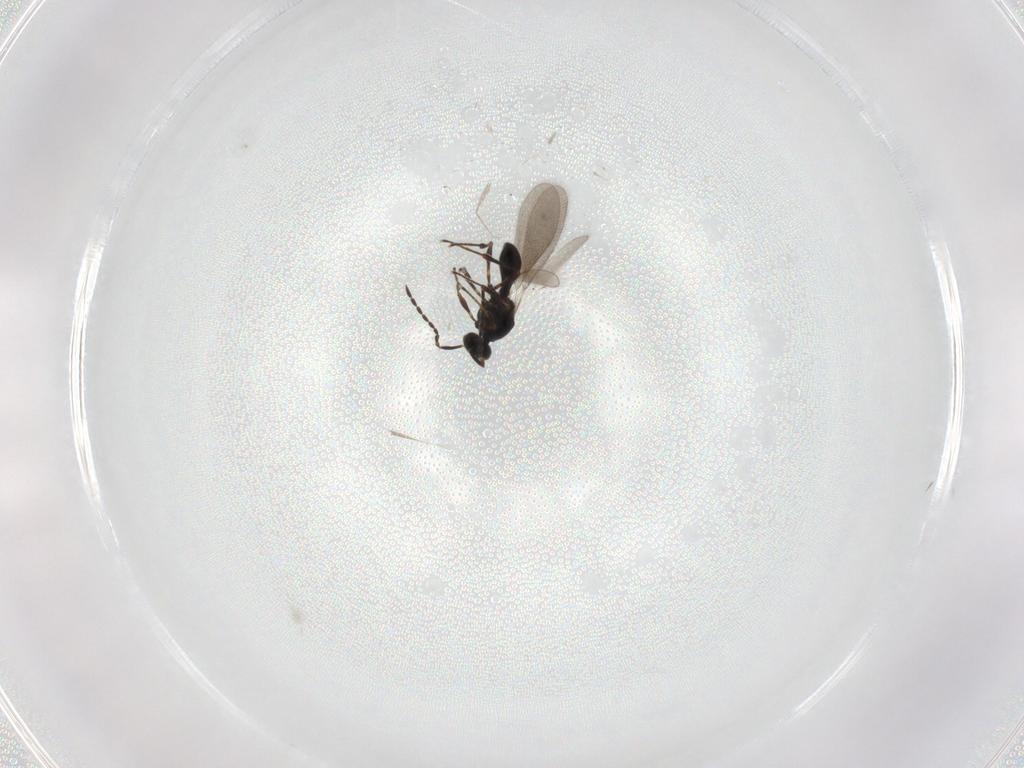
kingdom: Animalia
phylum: Arthropoda
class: Insecta
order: Hymenoptera
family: Platygastridae
